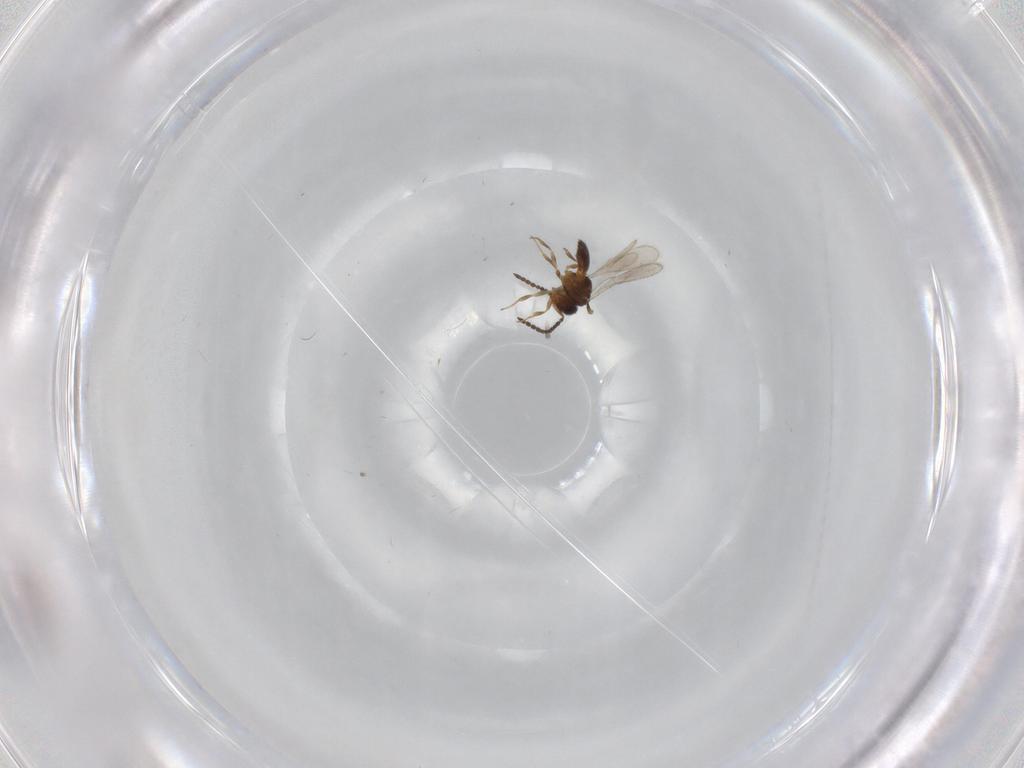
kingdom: Animalia
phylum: Arthropoda
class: Insecta
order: Hymenoptera
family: Scelionidae
